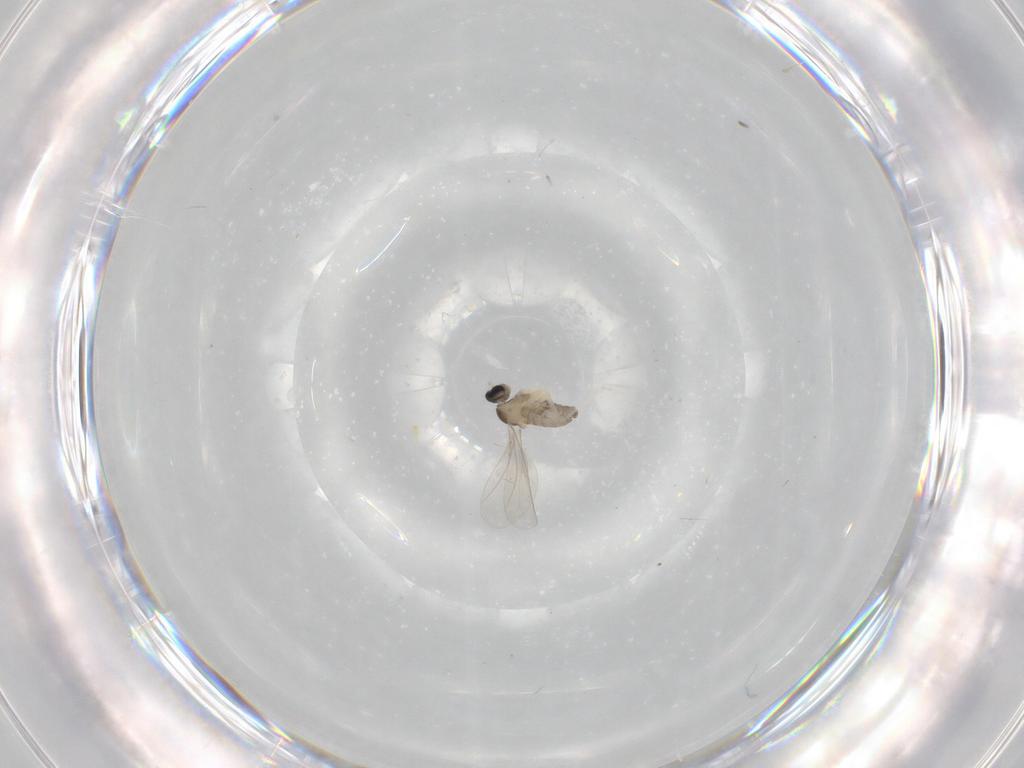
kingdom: Animalia
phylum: Arthropoda
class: Insecta
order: Diptera
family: Cecidomyiidae
